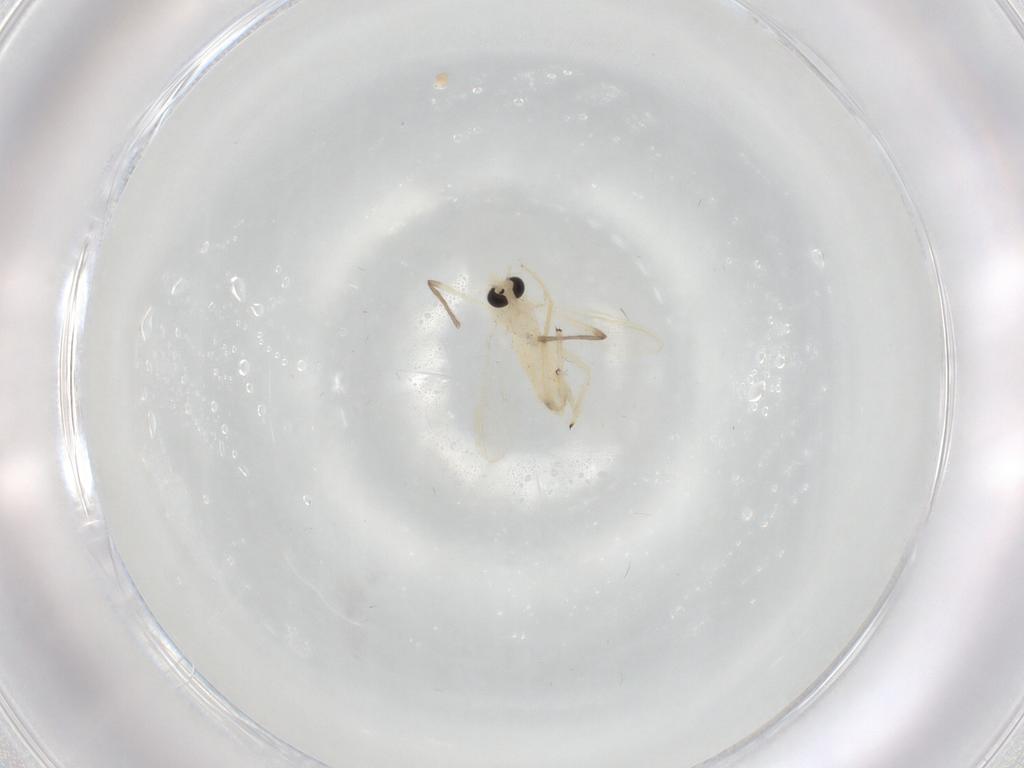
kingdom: Animalia
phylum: Arthropoda
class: Insecta
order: Diptera
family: Chironomidae
